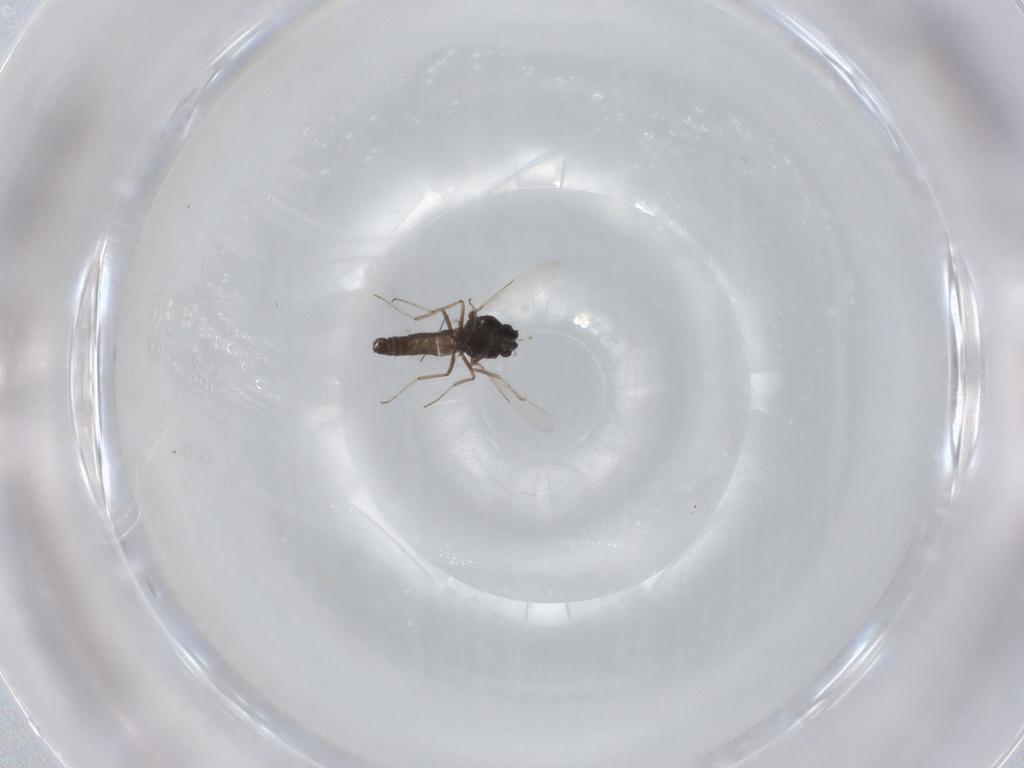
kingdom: Animalia
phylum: Arthropoda
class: Insecta
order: Diptera
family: Ceratopogonidae
